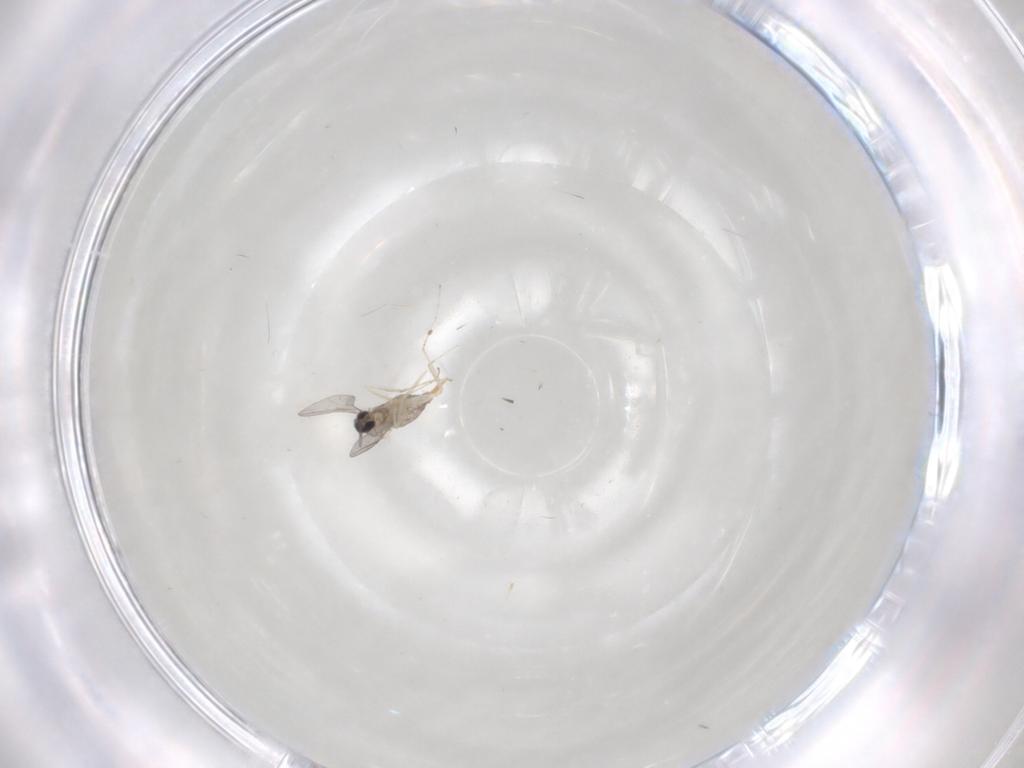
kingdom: Animalia
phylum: Arthropoda
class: Insecta
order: Diptera
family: Cecidomyiidae
